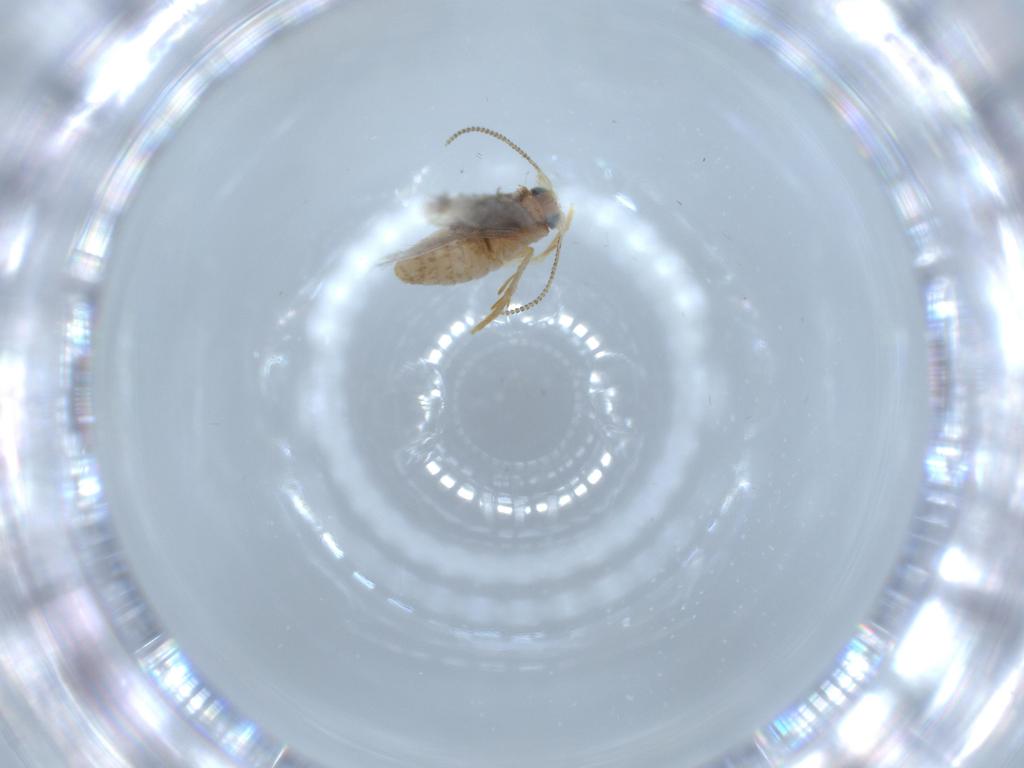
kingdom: Animalia
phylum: Arthropoda
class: Insecta
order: Lepidoptera
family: Nepticulidae
